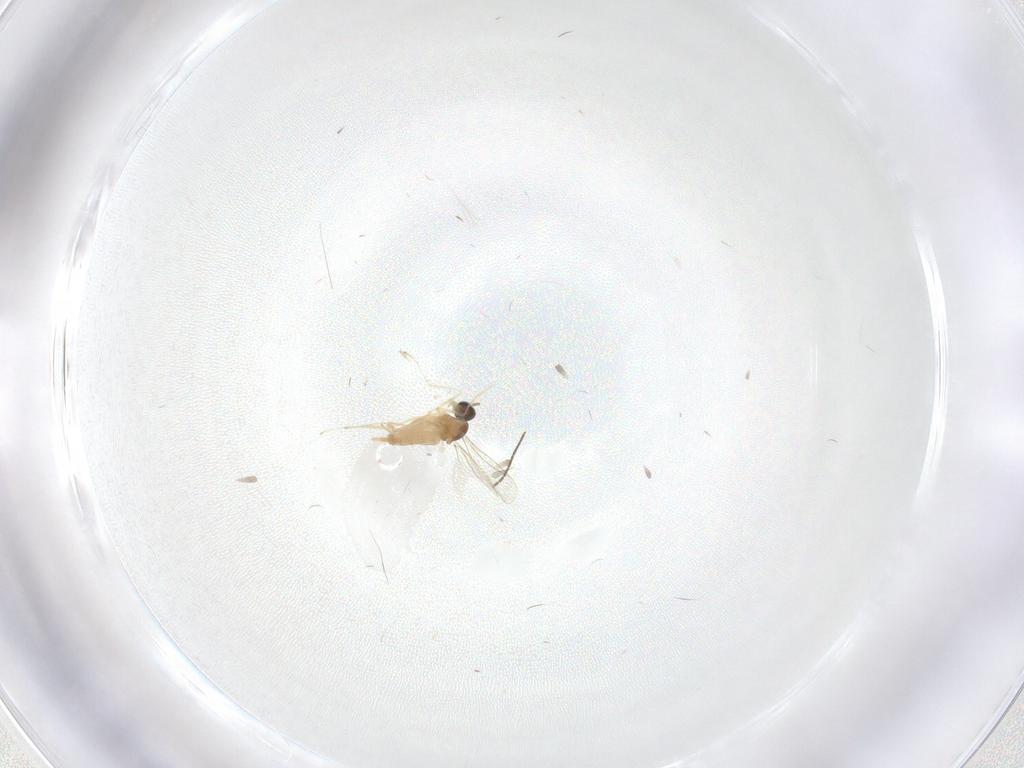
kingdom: Animalia
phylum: Arthropoda
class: Insecta
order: Diptera
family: Cecidomyiidae
